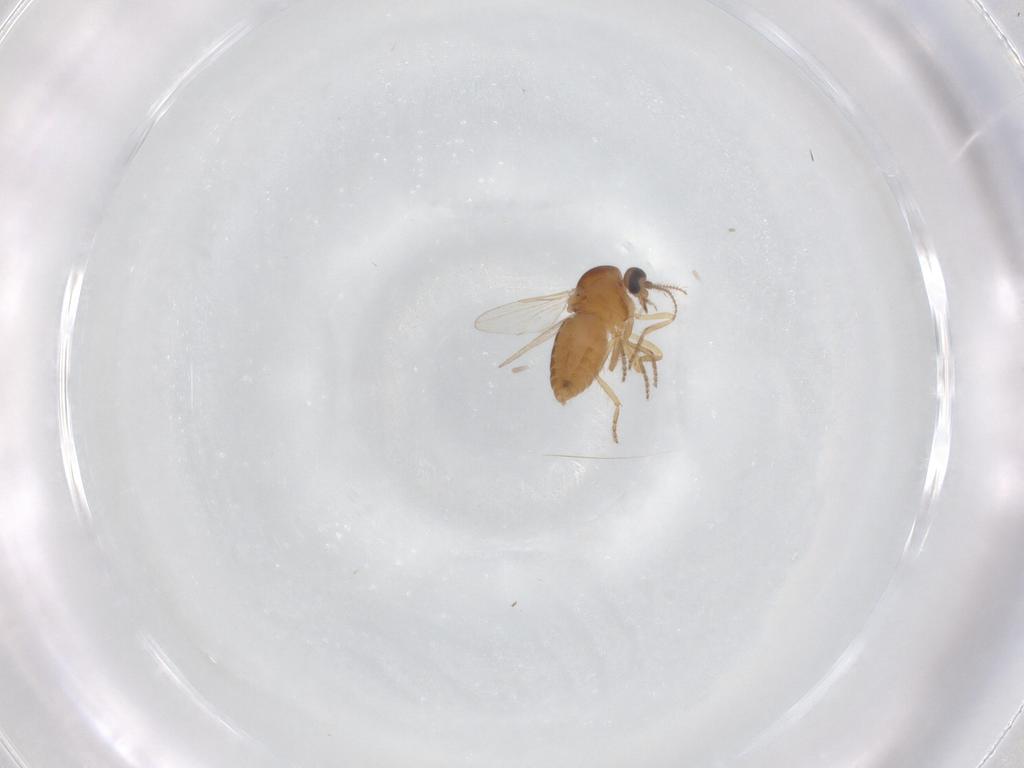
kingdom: Animalia
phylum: Arthropoda
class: Insecta
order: Diptera
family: Ceratopogonidae
